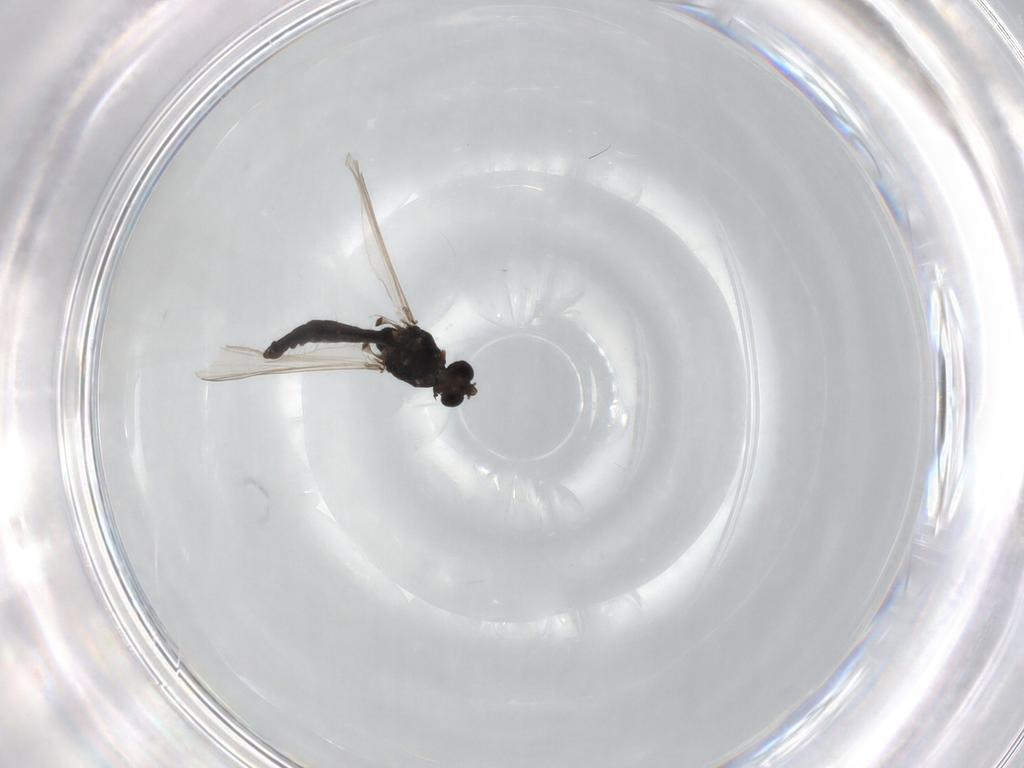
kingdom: Animalia
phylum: Arthropoda
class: Insecta
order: Diptera
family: Chironomidae
